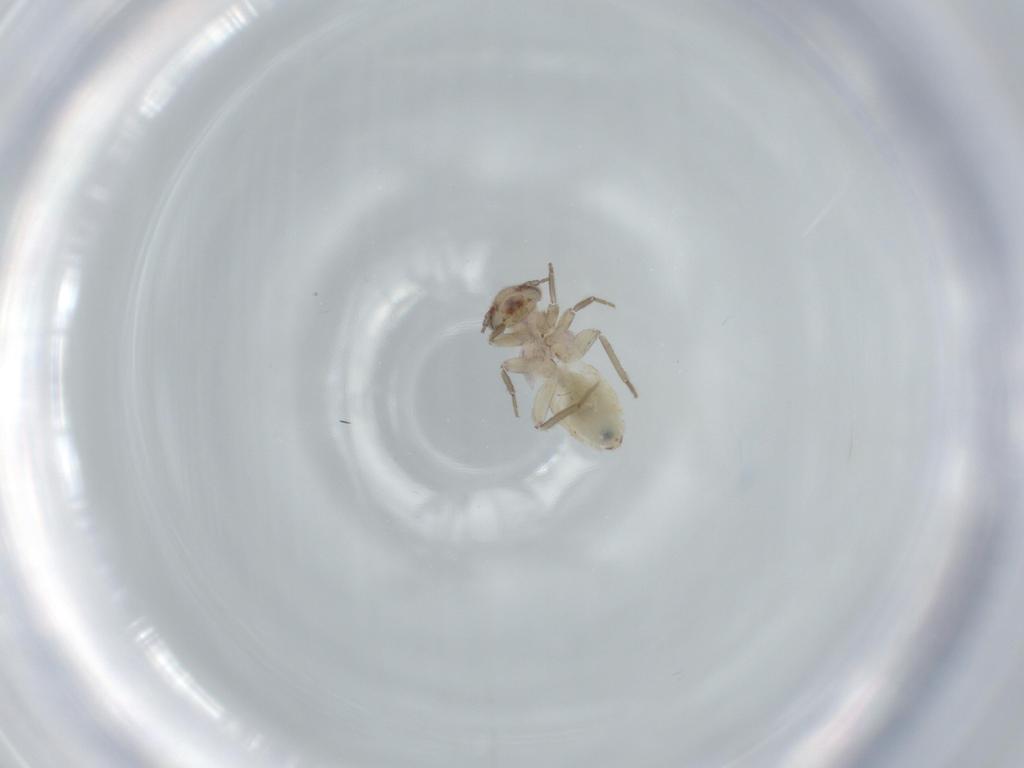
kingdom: Animalia
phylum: Arthropoda
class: Insecta
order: Psocodea
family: Lepidopsocidae
